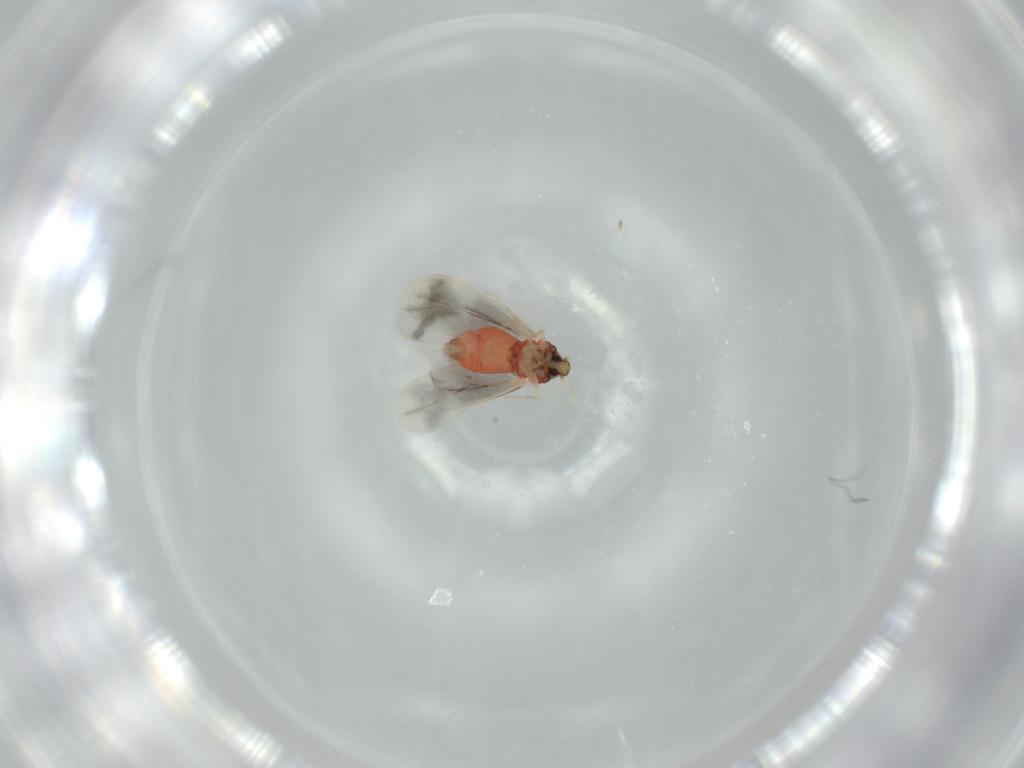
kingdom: Animalia
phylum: Arthropoda
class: Insecta
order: Hemiptera
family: Aleyrodidae
